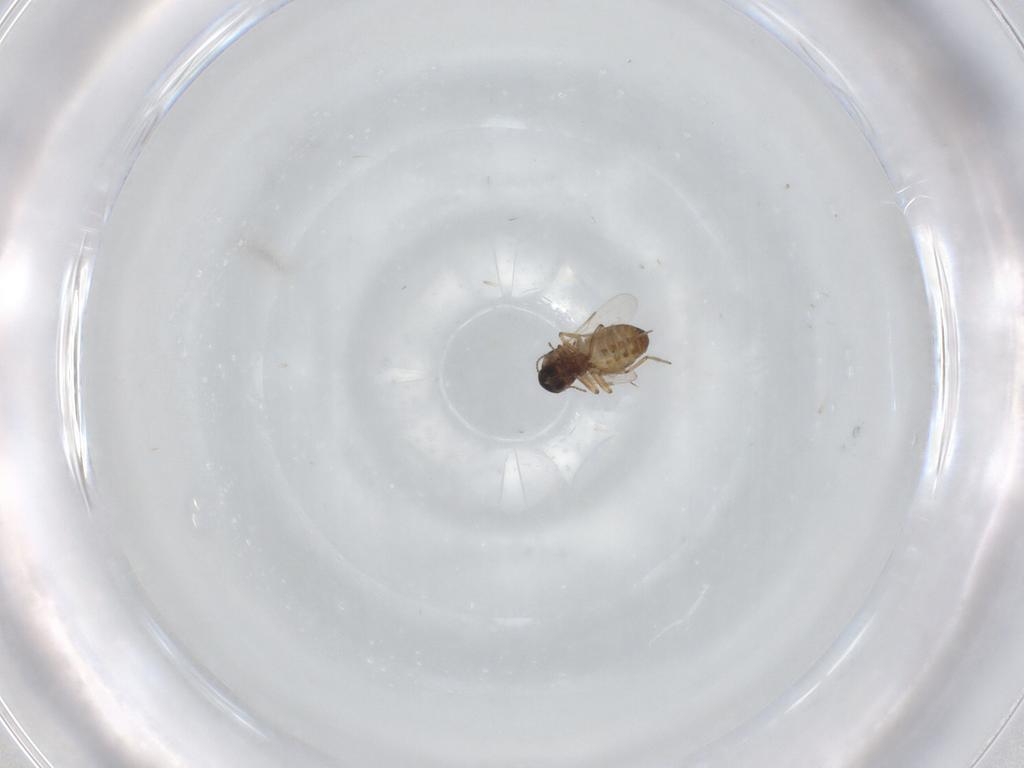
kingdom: Animalia
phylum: Arthropoda
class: Insecta
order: Diptera
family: Ceratopogonidae
